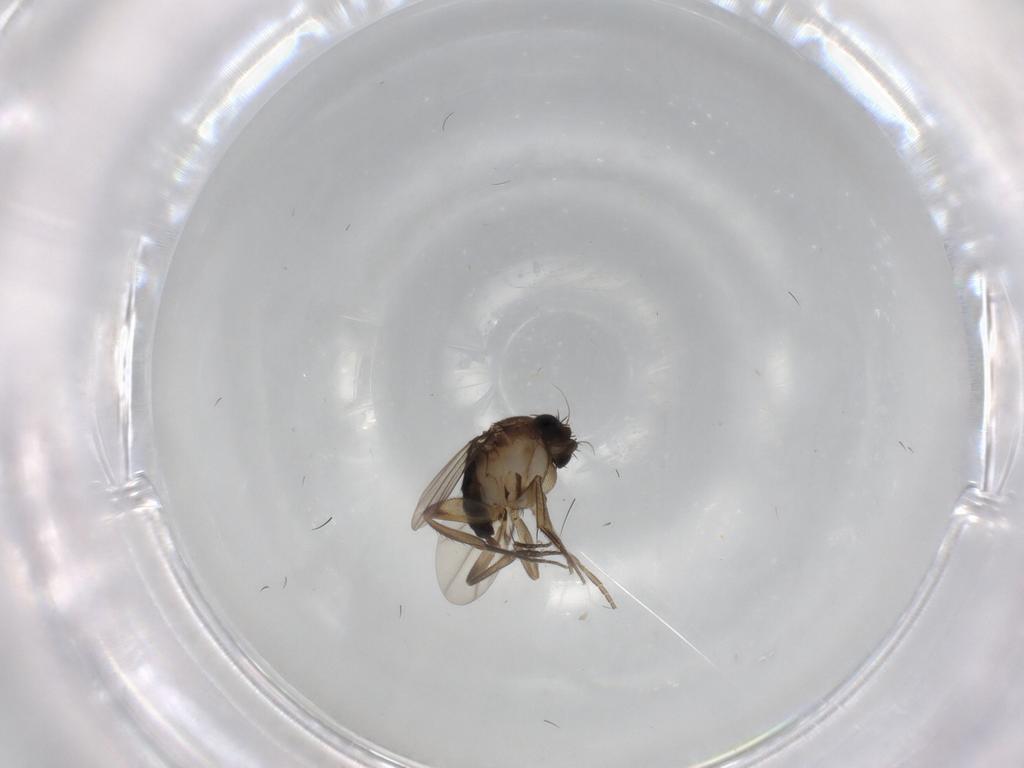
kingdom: Animalia
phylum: Arthropoda
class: Insecta
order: Diptera
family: Phoridae
